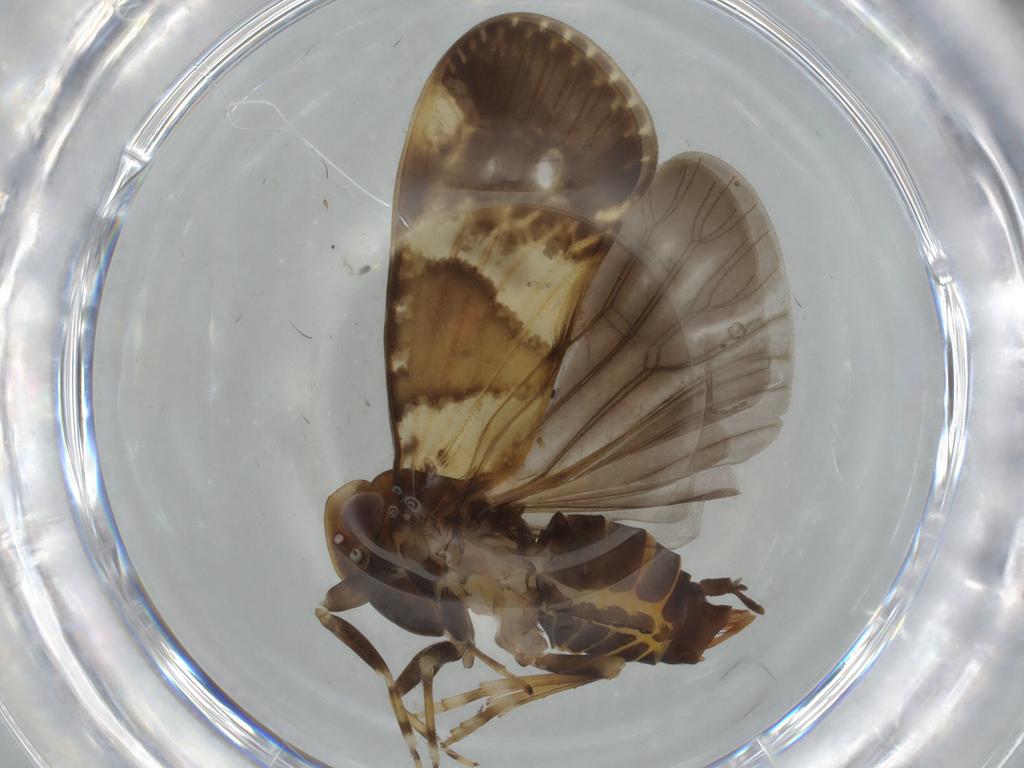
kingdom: Animalia
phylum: Arthropoda
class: Insecta
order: Hemiptera
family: Cixiidae
